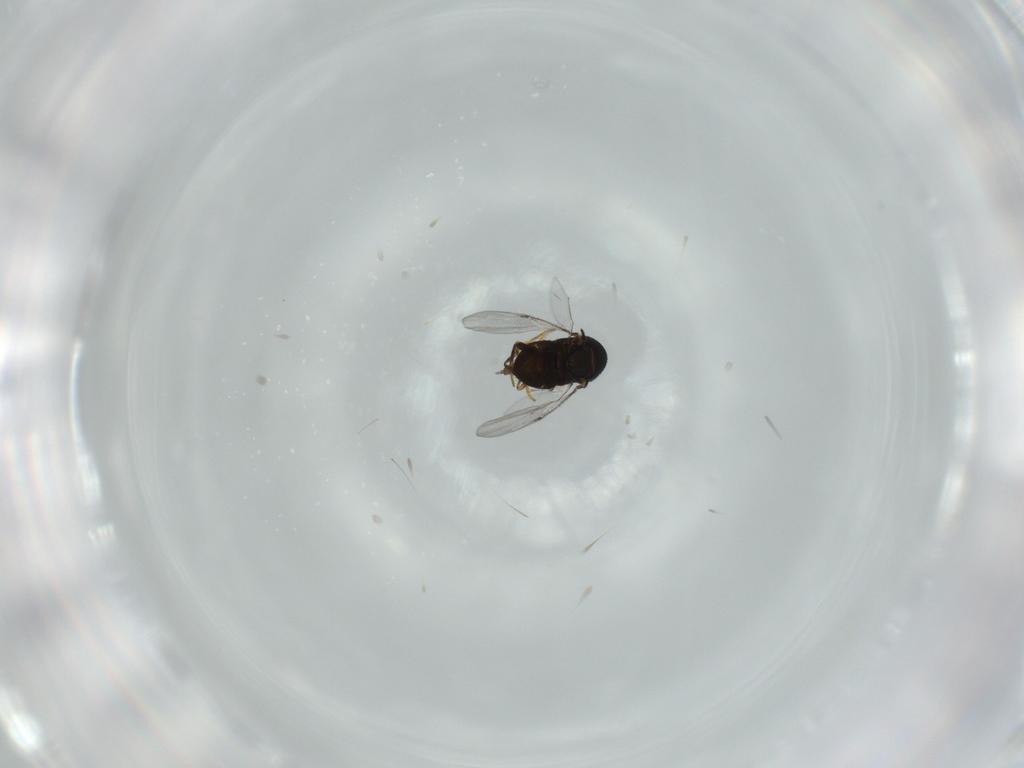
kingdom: Animalia
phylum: Arthropoda
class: Insecta
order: Hymenoptera
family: Encyrtidae
